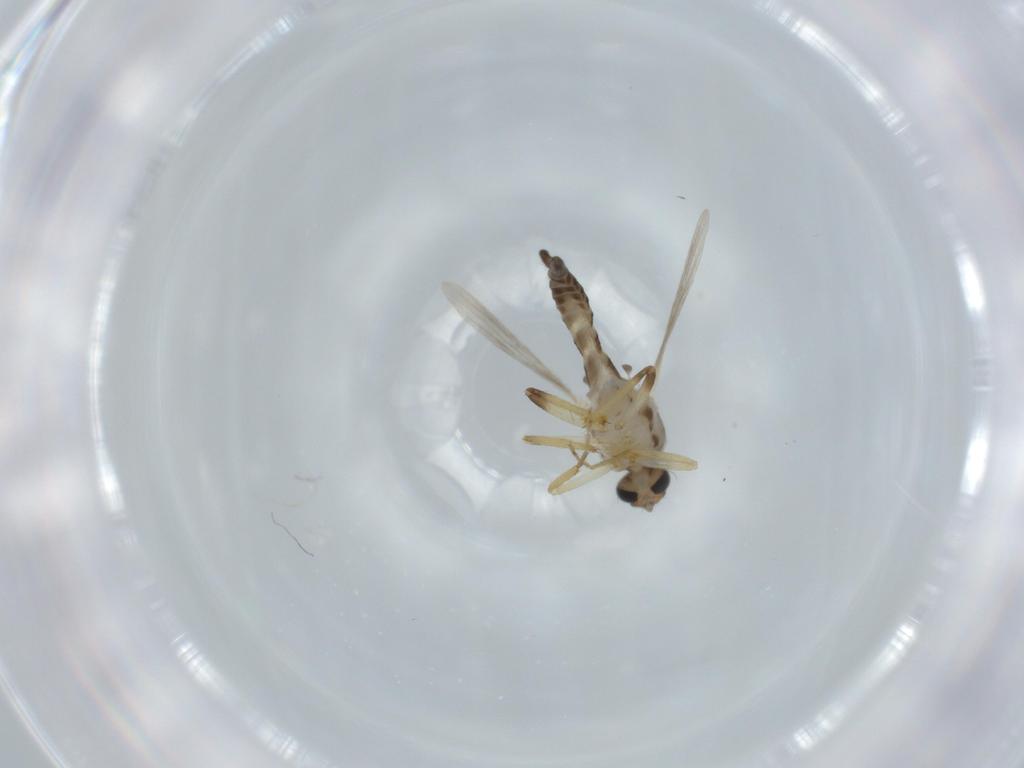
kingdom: Animalia
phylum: Arthropoda
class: Insecta
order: Diptera
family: Ceratopogonidae
